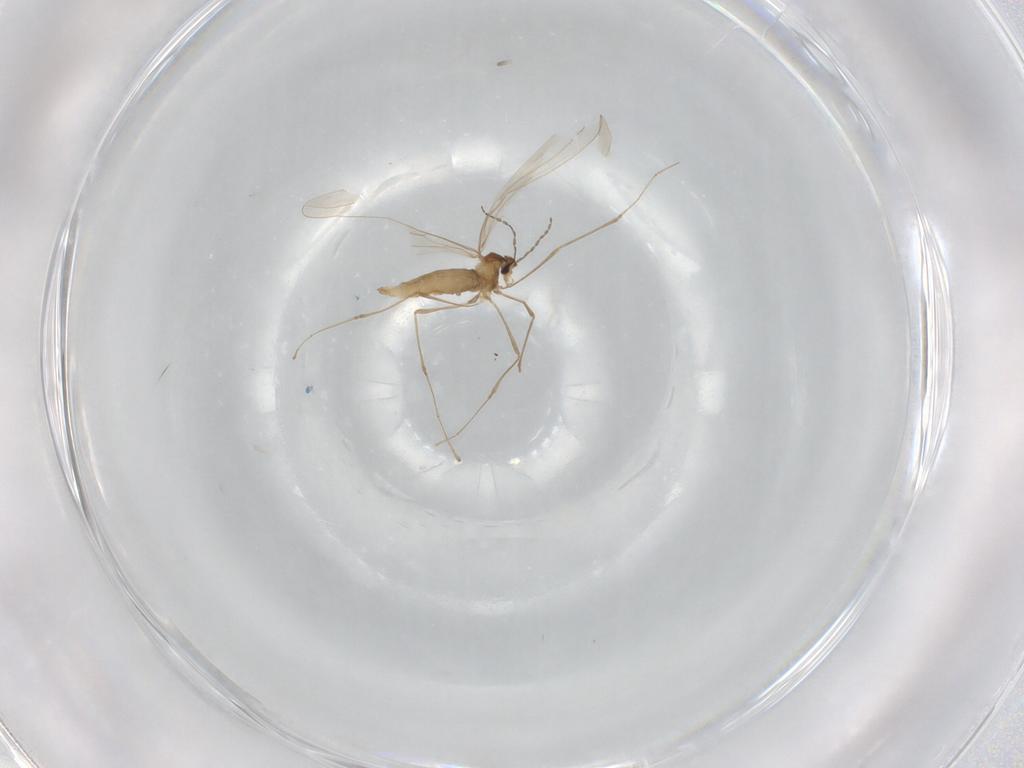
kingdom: Animalia
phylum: Arthropoda
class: Insecta
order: Diptera
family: Cecidomyiidae
